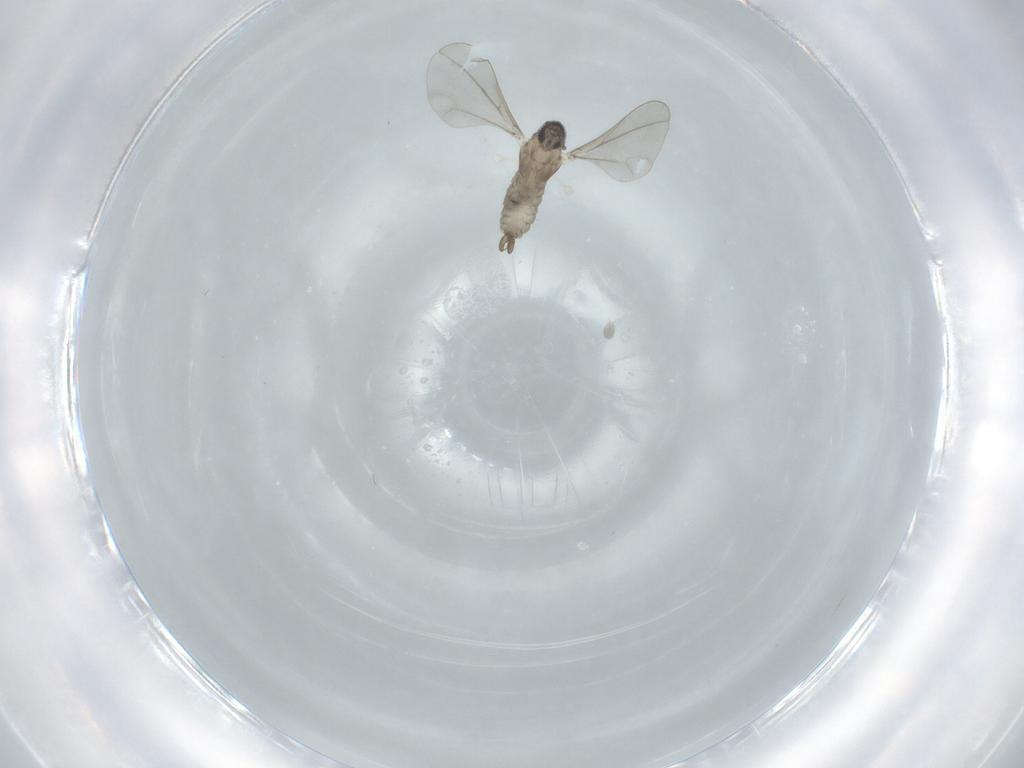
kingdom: Animalia
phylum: Arthropoda
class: Insecta
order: Diptera
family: Cecidomyiidae
